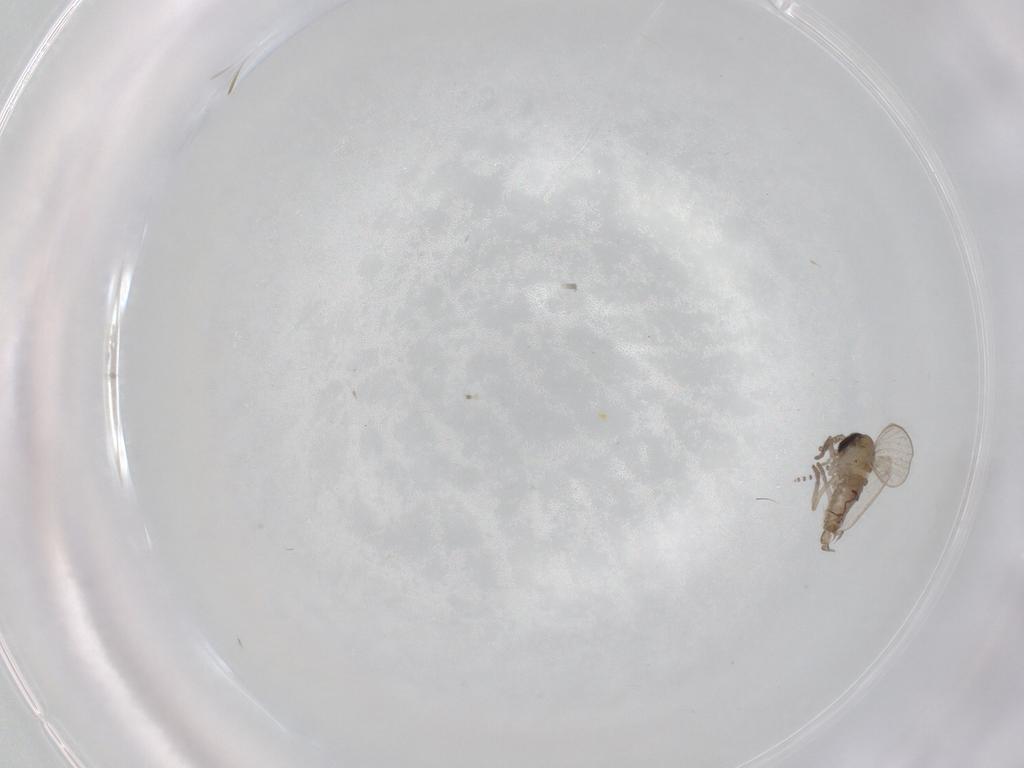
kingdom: Animalia
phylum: Arthropoda
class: Insecta
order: Diptera
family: Psychodidae
